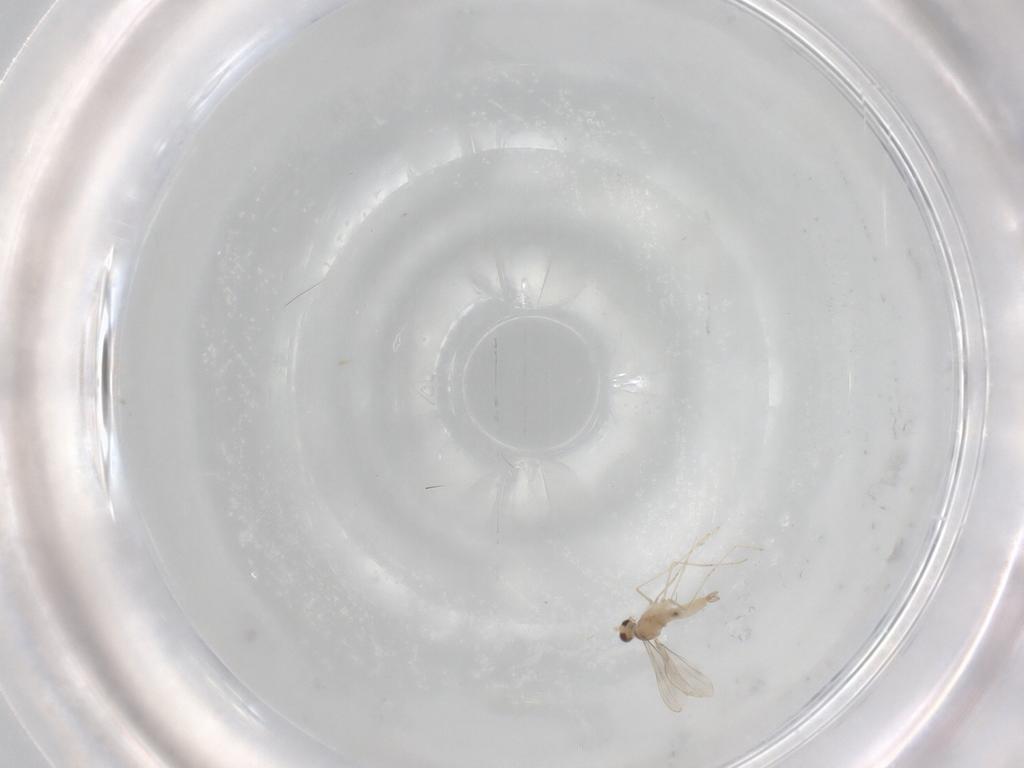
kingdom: Animalia
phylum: Arthropoda
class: Insecta
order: Diptera
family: Cecidomyiidae
